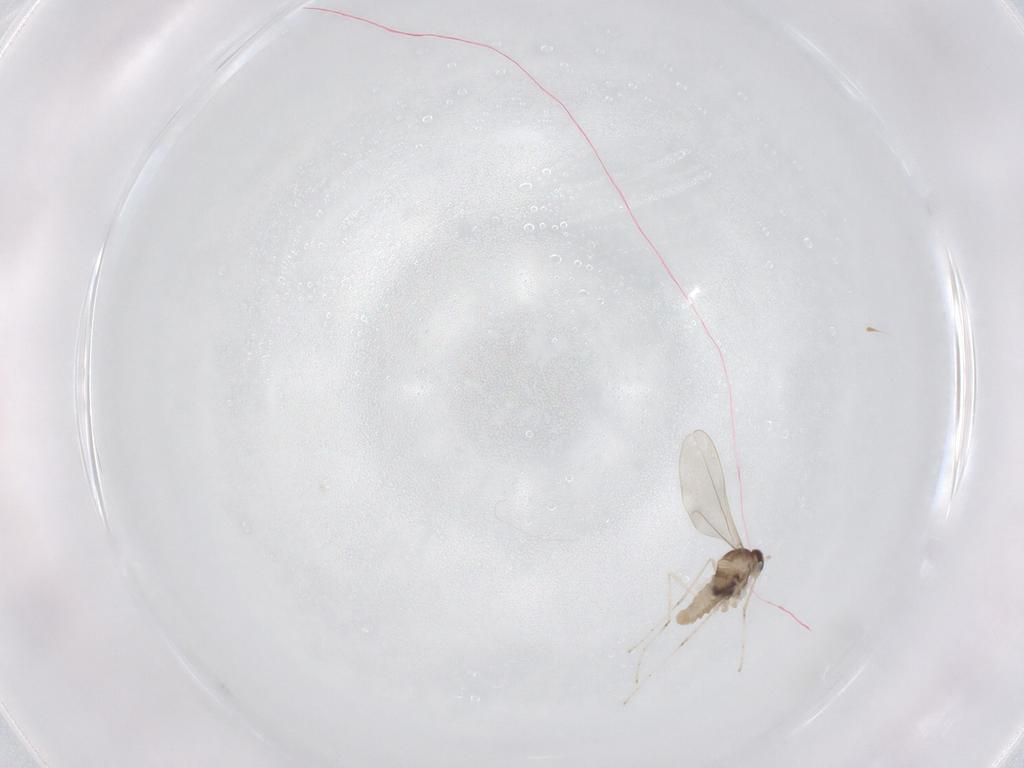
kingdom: Animalia
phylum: Arthropoda
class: Insecta
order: Diptera
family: Cecidomyiidae
